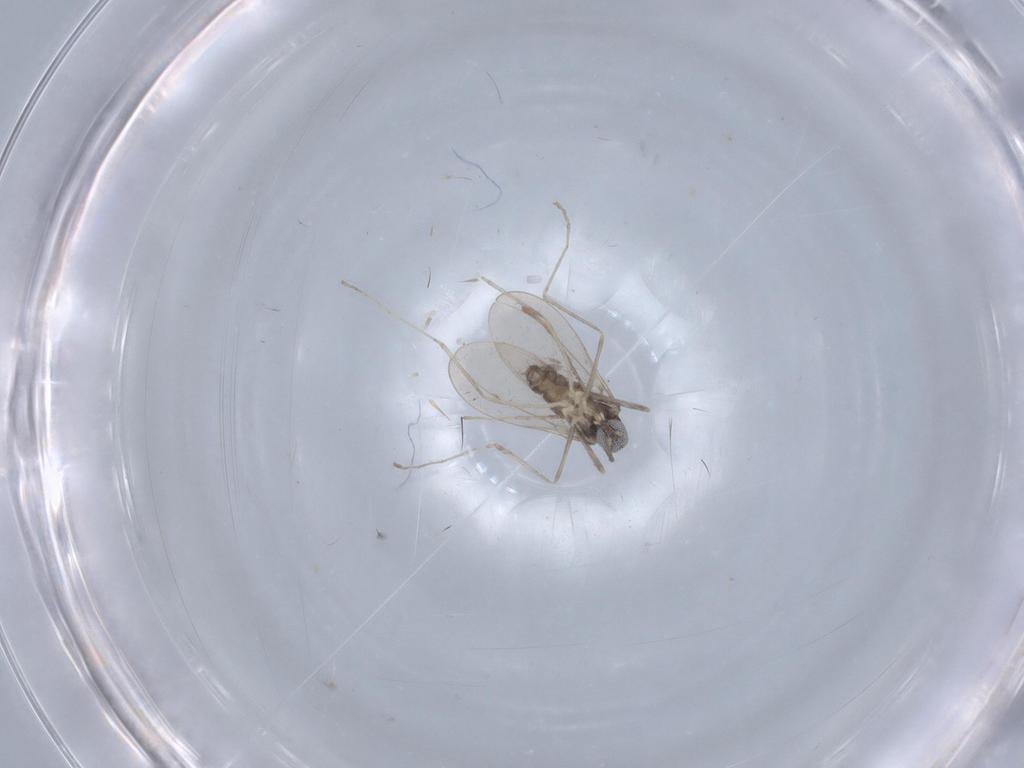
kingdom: Animalia
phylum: Arthropoda
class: Insecta
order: Diptera
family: Cecidomyiidae
